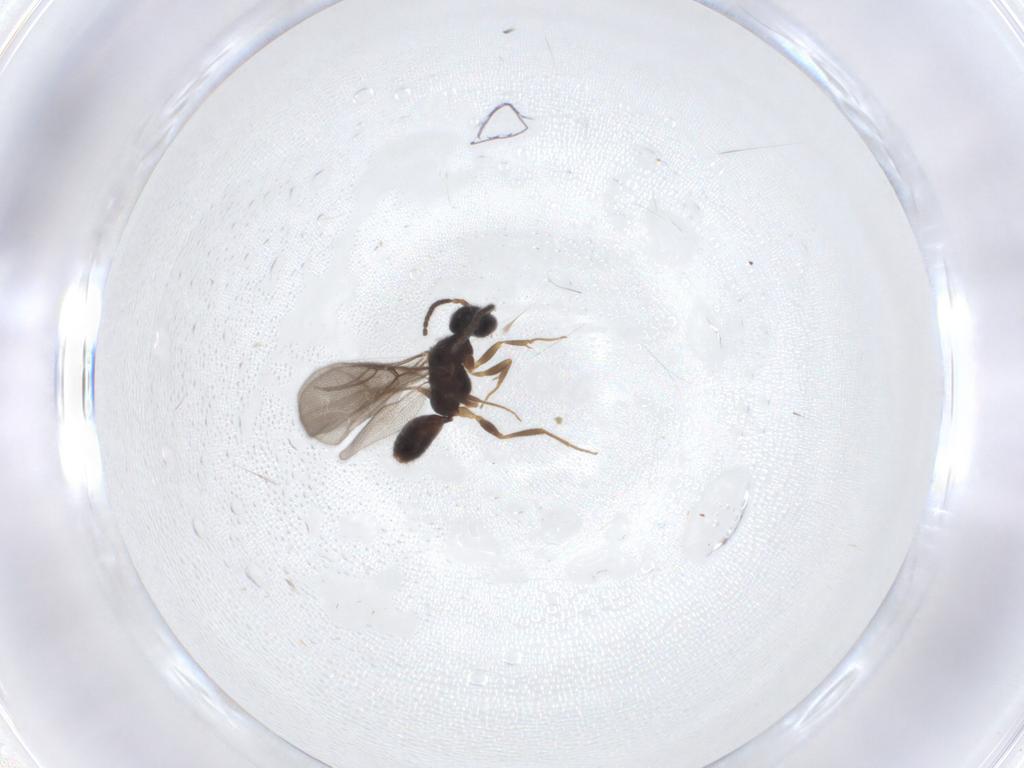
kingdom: Animalia
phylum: Arthropoda
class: Insecta
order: Hymenoptera
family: Bethylidae
